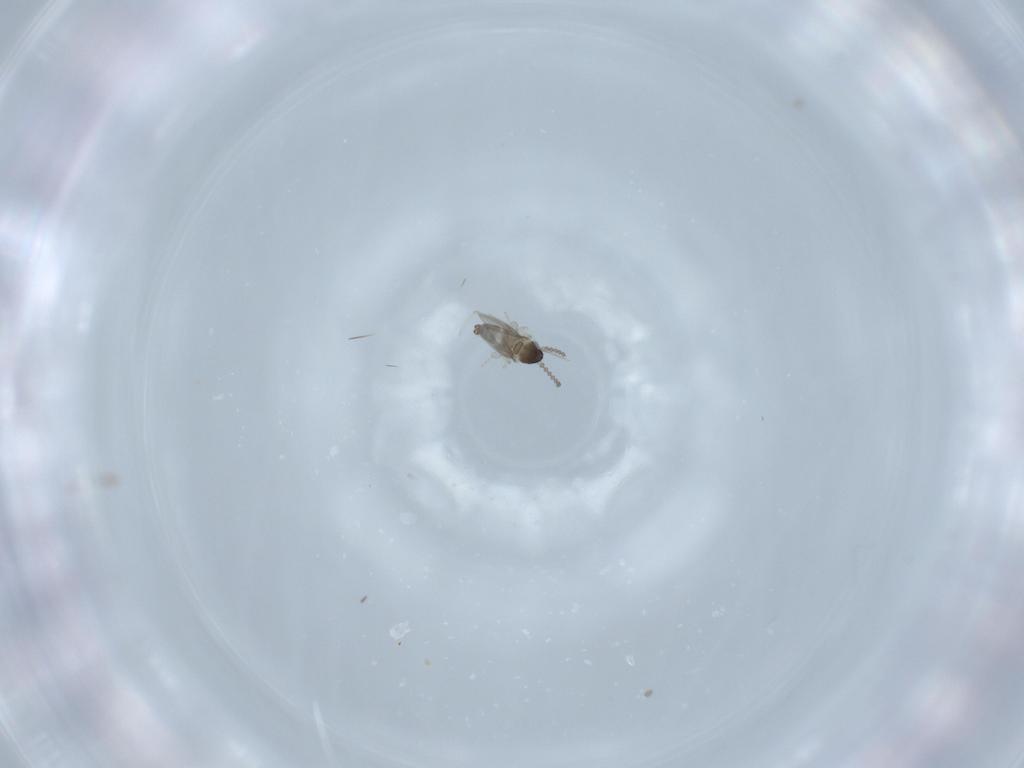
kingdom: Animalia
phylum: Arthropoda
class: Insecta
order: Diptera
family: Cecidomyiidae
